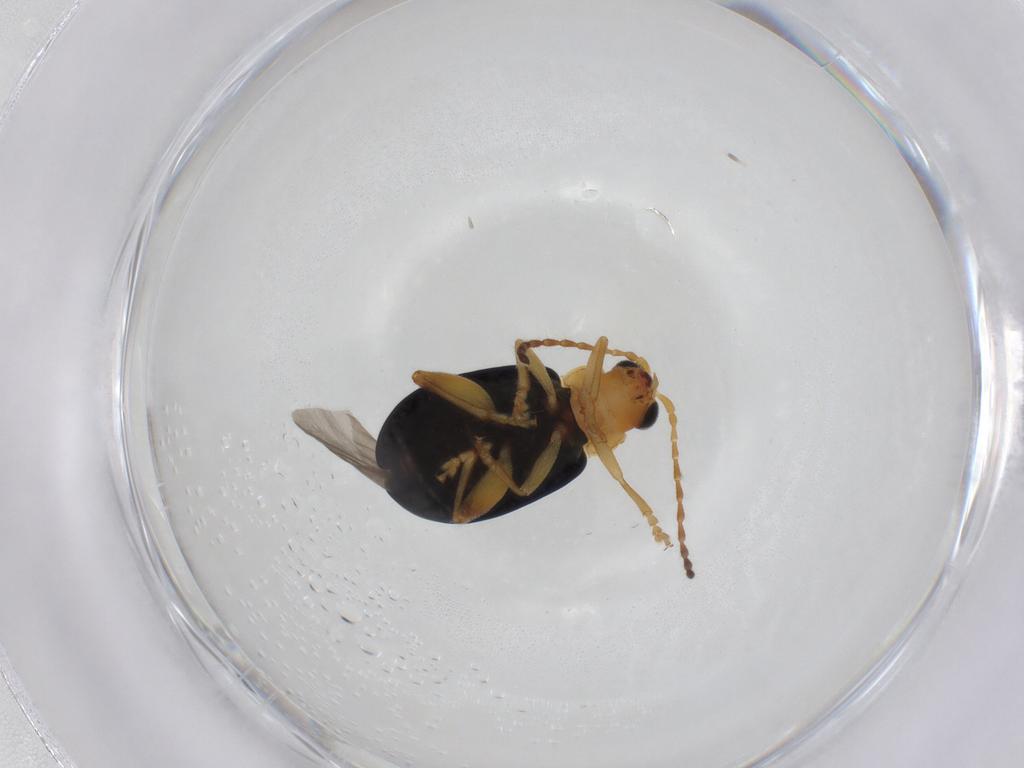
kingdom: Animalia
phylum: Arthropoda
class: Insecta
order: Coleoptera
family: Chrysomelidae
